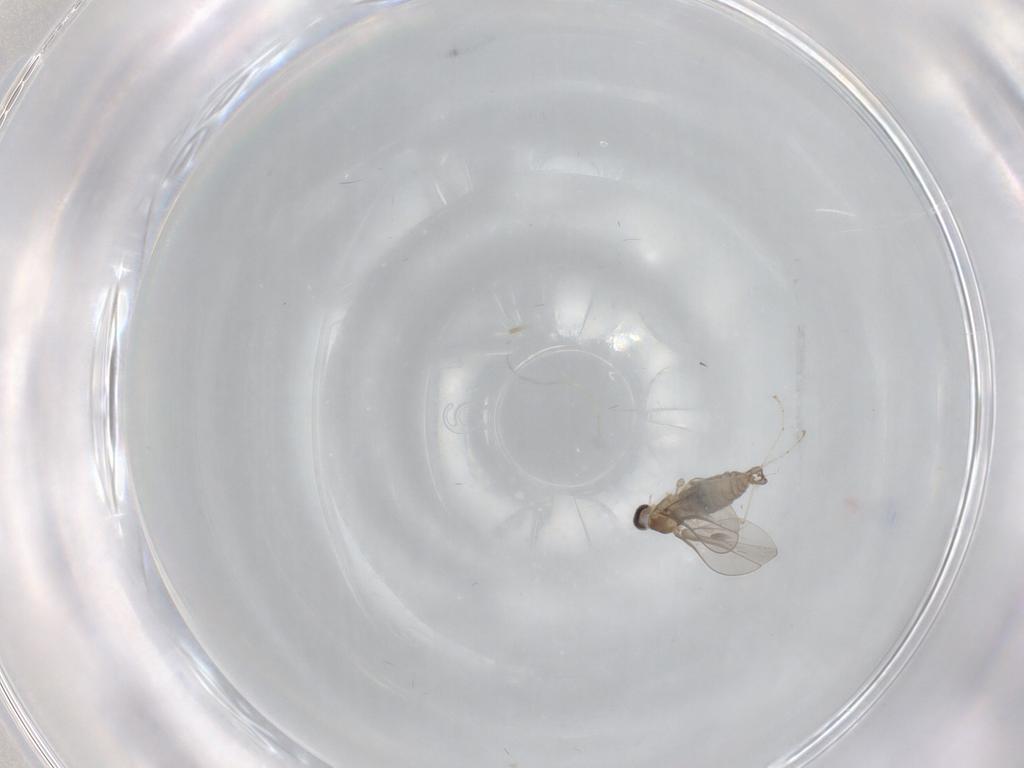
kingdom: Animalia
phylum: Arthropoda
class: Insecta
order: Diptera
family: Cecidomyiidae
